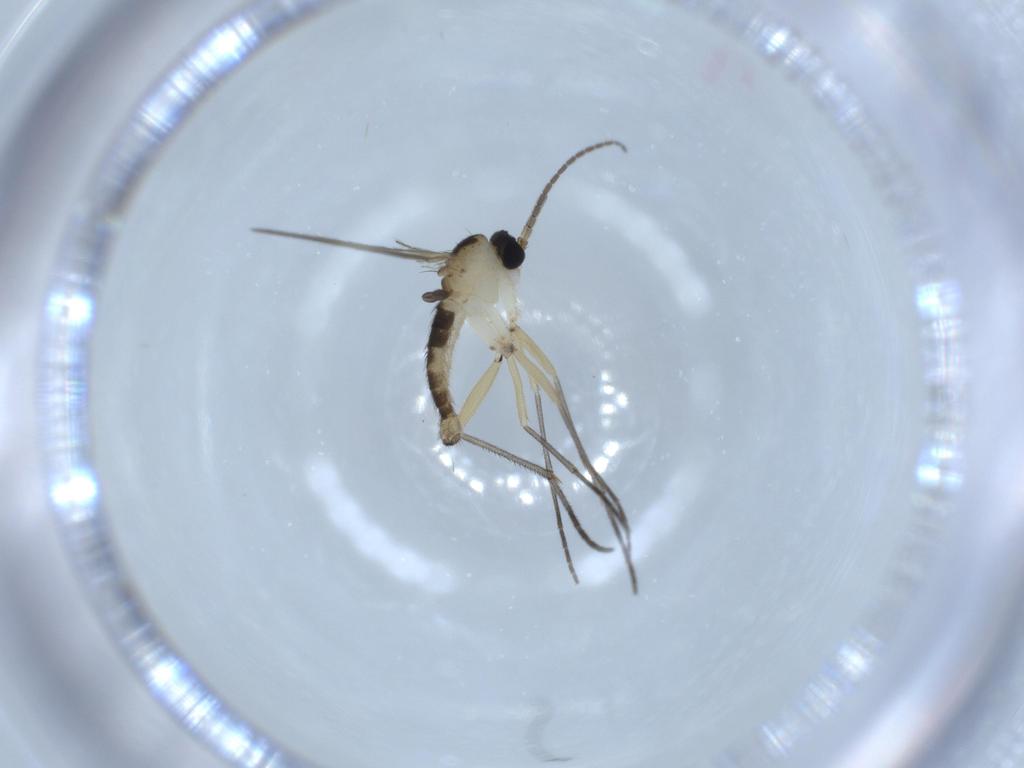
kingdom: Animalia
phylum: Arthropoda
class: Insecta
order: Diptera
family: Sciaridae
